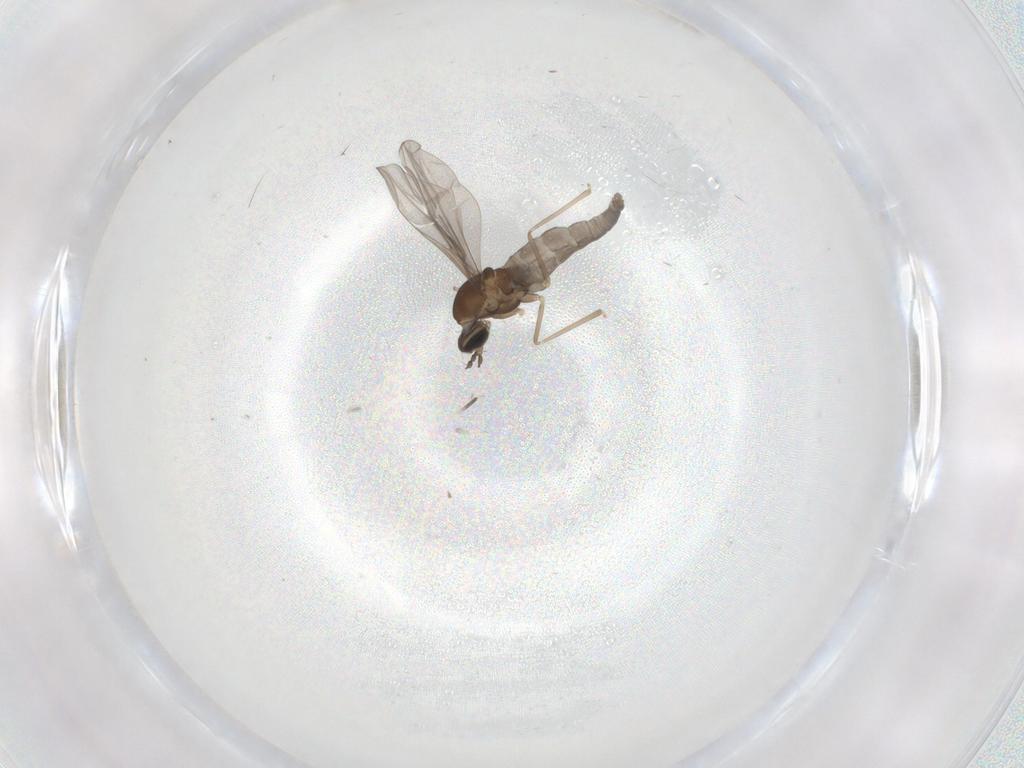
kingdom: Animalia
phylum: Arthropoda
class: Insecta
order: Diptera
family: Cecidomyiidae
